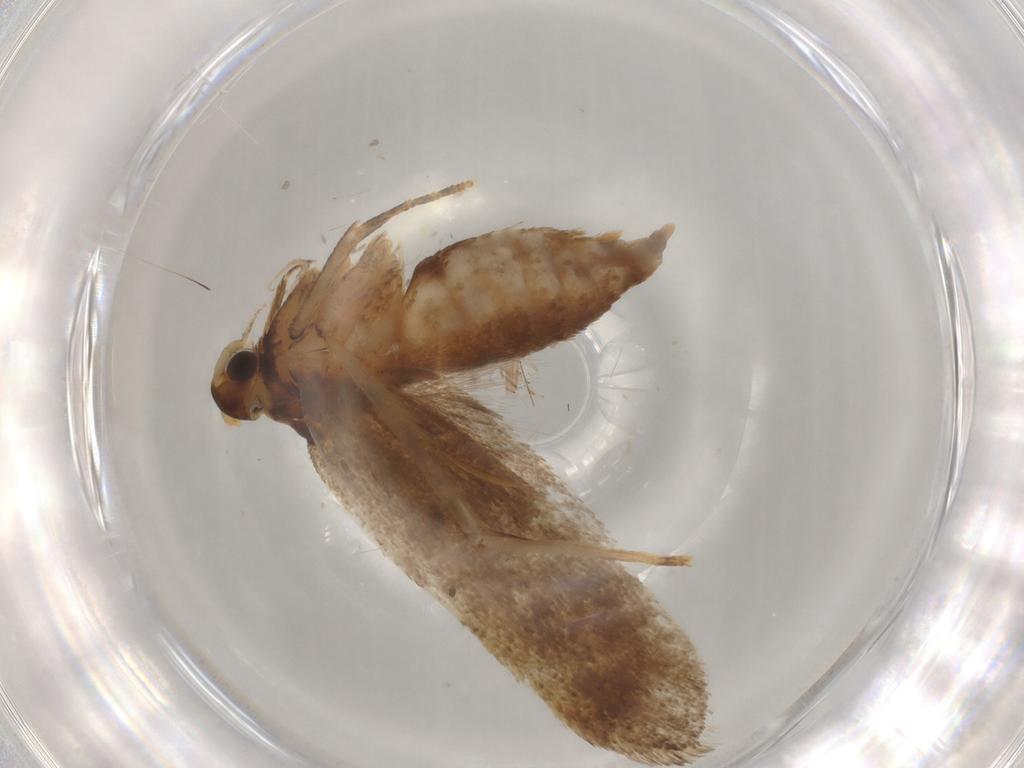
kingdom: Animalia
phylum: Arthropoda
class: Insecta
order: Lepidoptera
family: Lecithoceridae
